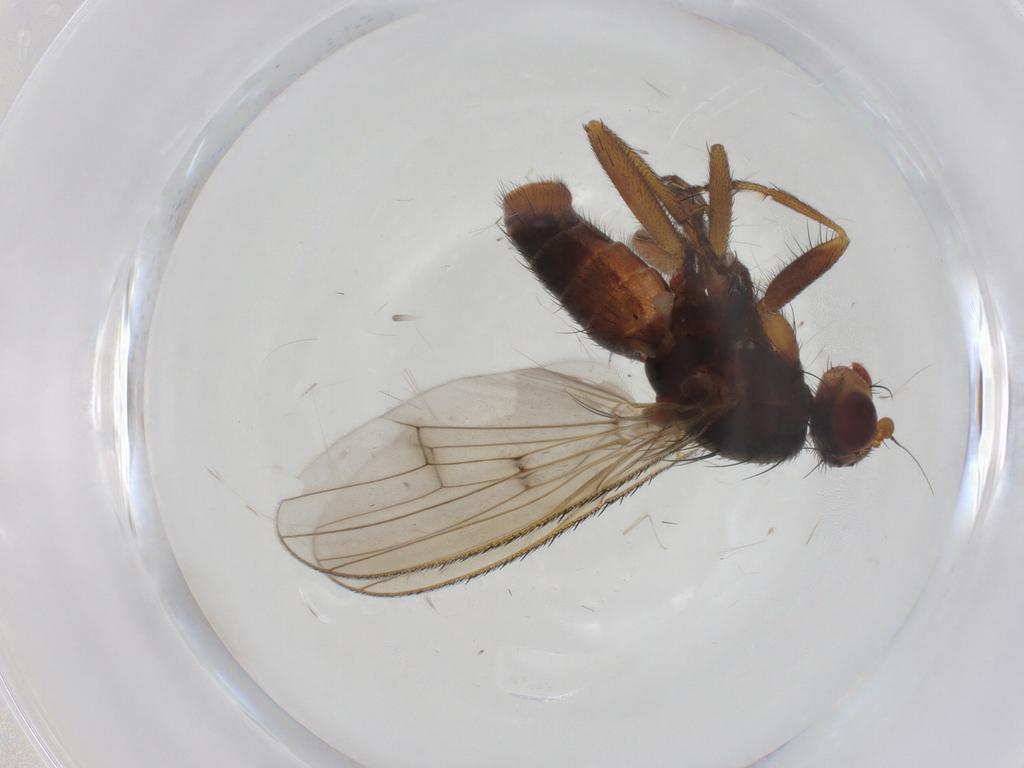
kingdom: Animalia
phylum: Arthropoda
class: Insecta
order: Diptera
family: Heleomyzidae
